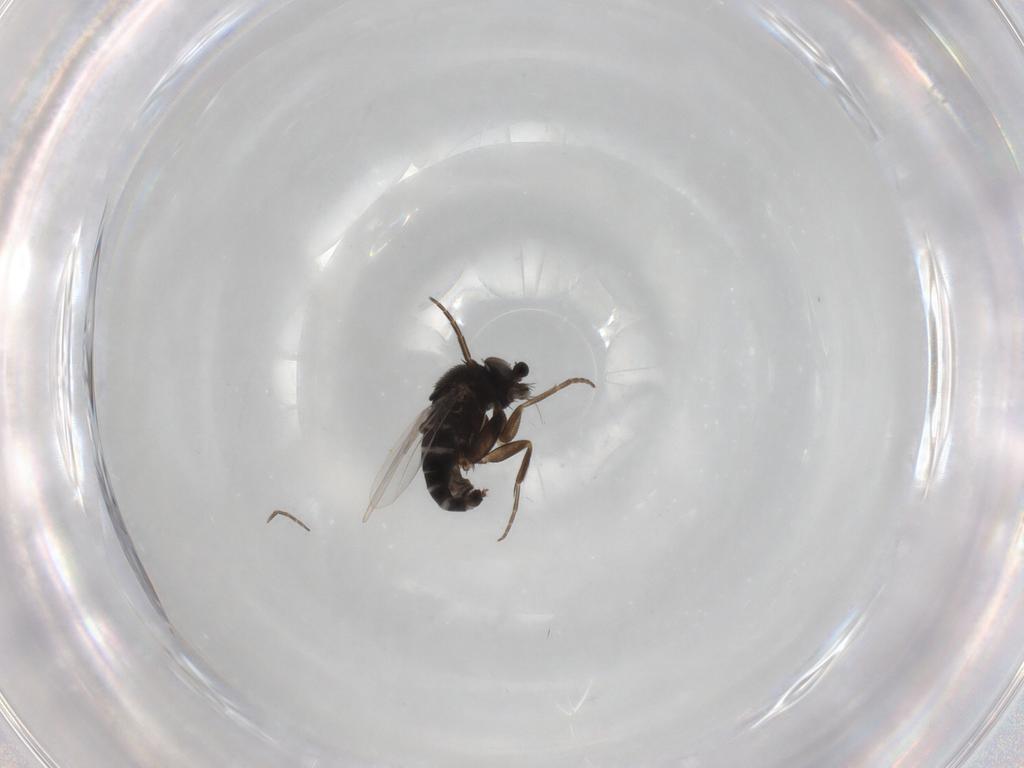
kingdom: Animalia
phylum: Arthropoda
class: Insecta
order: Diptera
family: Phoridae
